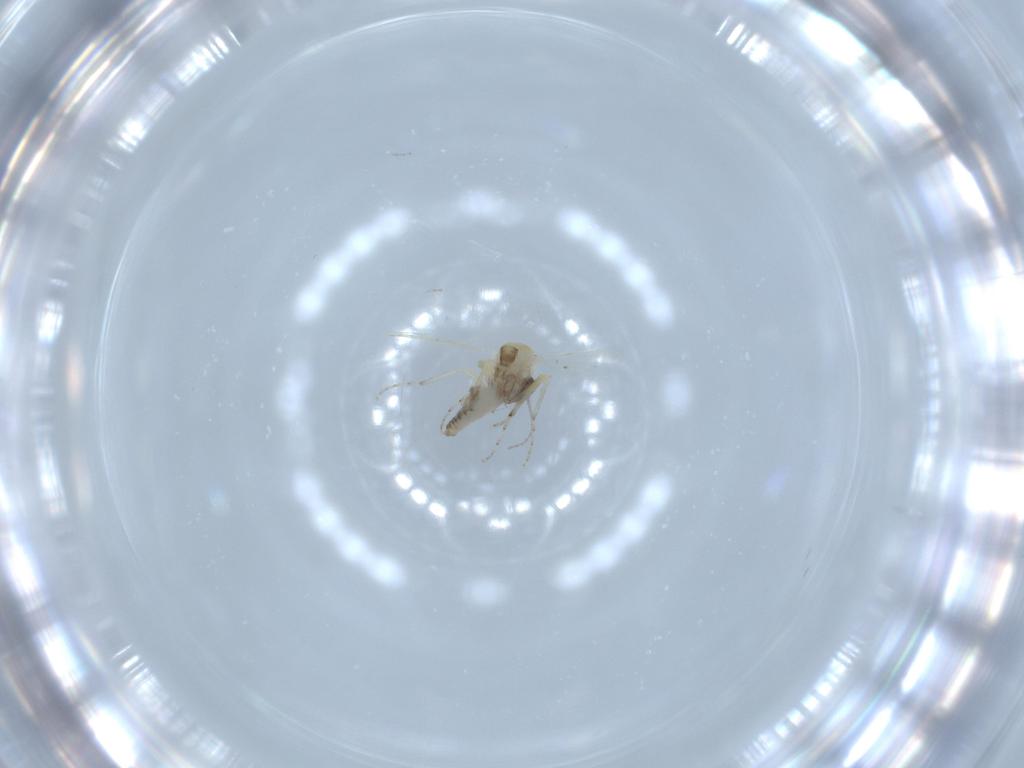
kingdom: Animalia
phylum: Arthropoda
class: Insecta
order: Diptera
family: Ceratopogonidae
